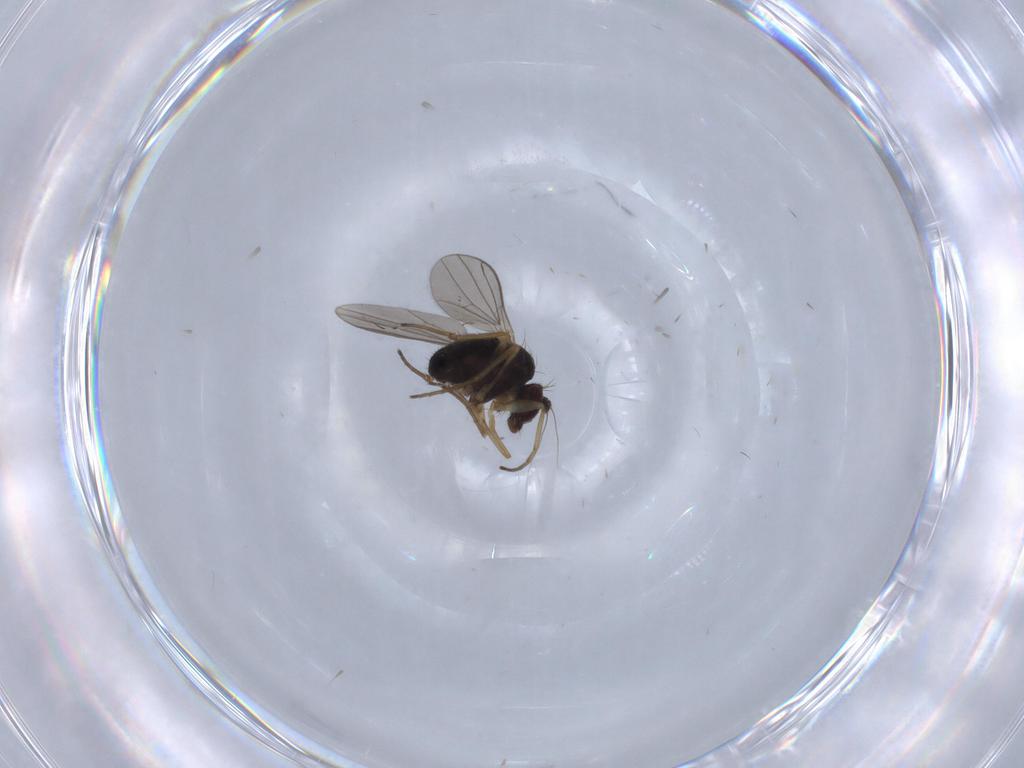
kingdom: Animalia
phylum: Arthropoda
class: Insecta
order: Diptera
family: Dolichopodidae
